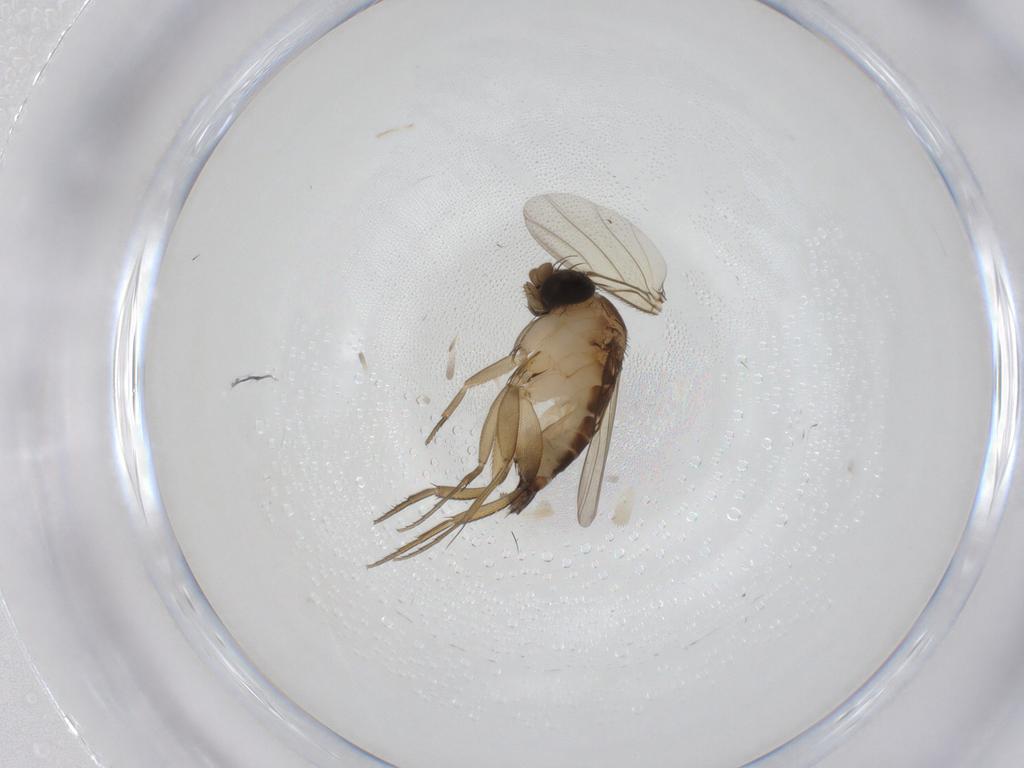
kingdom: Animalia
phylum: Arthropoda
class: Insecta
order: Diptera
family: Phoridae
